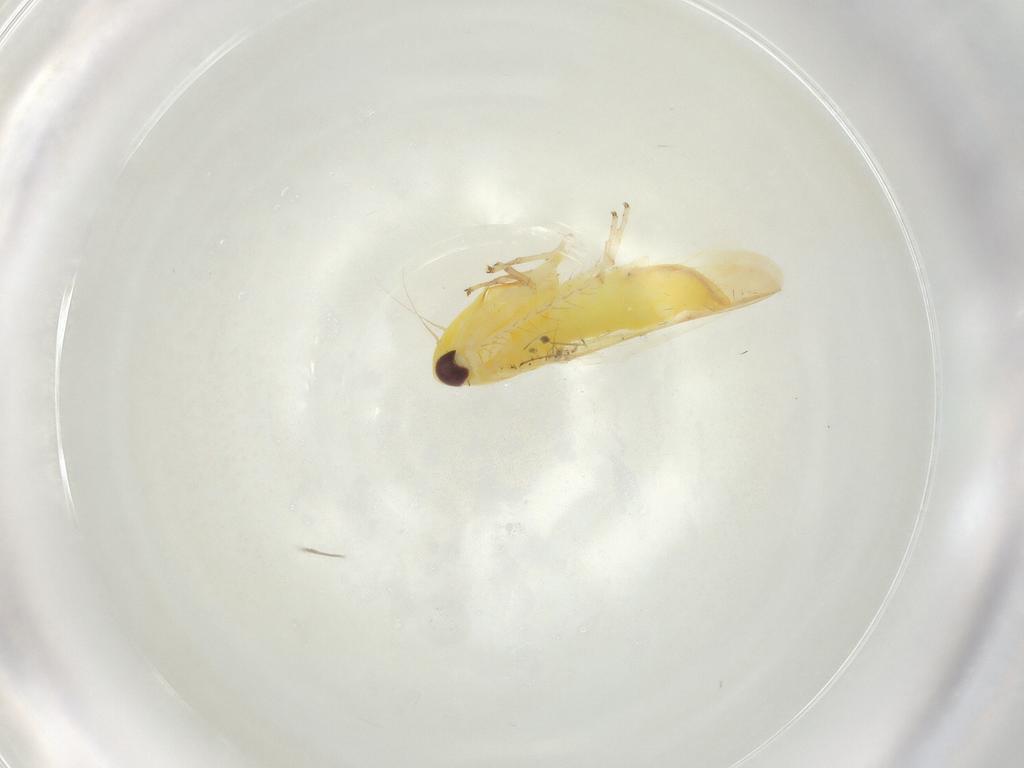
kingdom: Animalia
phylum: Arthropoda
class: Insecta
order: Hemiptera
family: Cicadellidae
